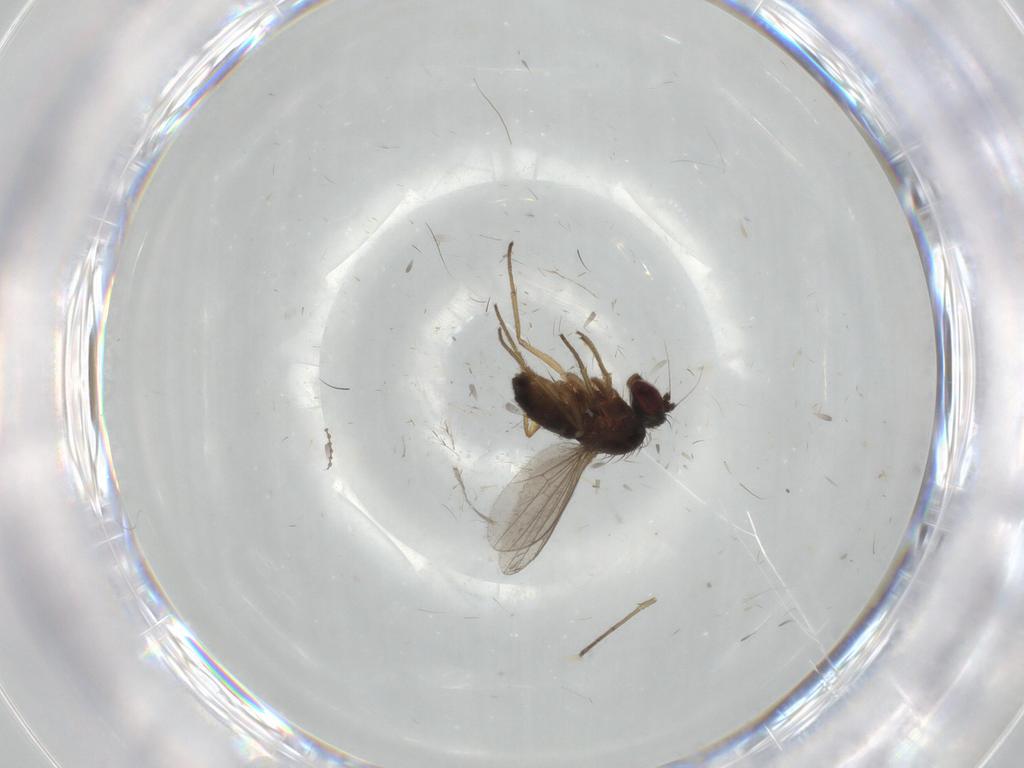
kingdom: Animalia
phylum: Arthropoda
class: Insecta
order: Diptera
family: Dolichopodidae
